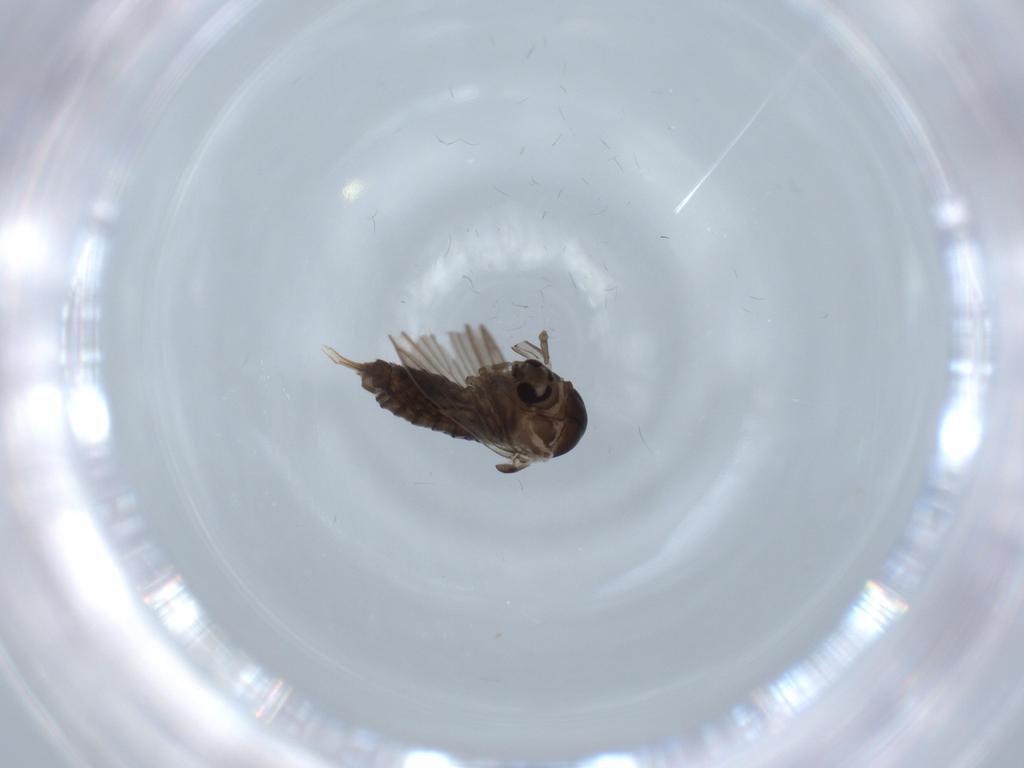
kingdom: Animalia
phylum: Arthropoda
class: Insecta
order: Diptera
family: Psychodidae
